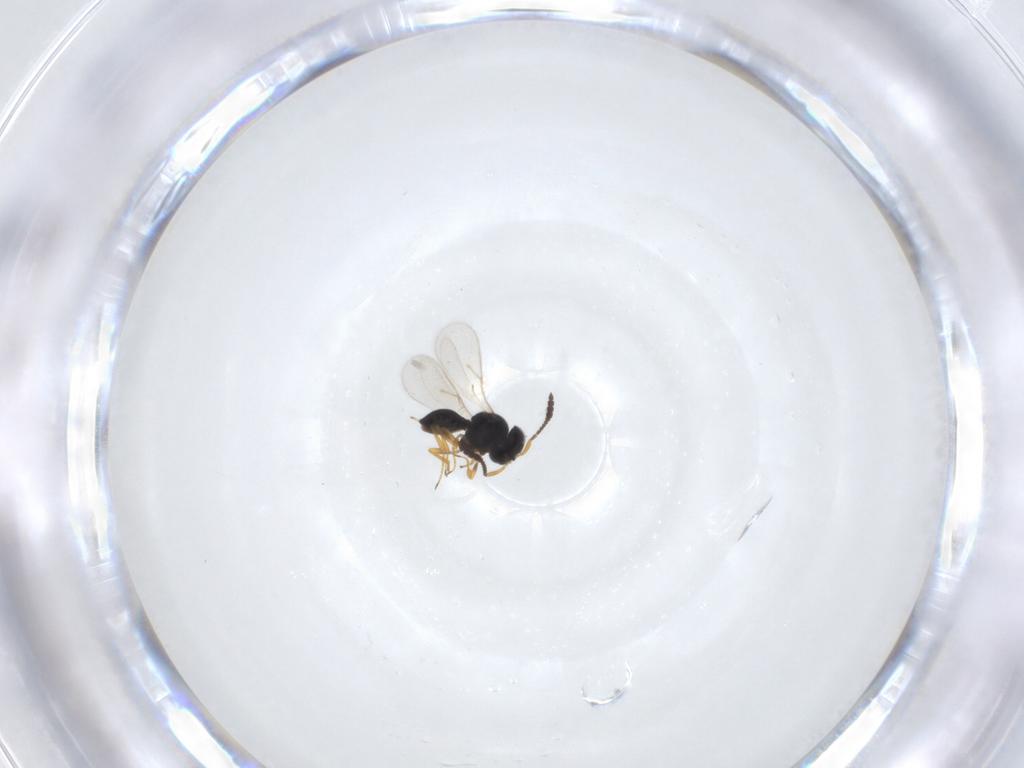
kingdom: Animalia
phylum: Arthropoda
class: Insecta
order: Hymenoptera
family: Scelionidae
